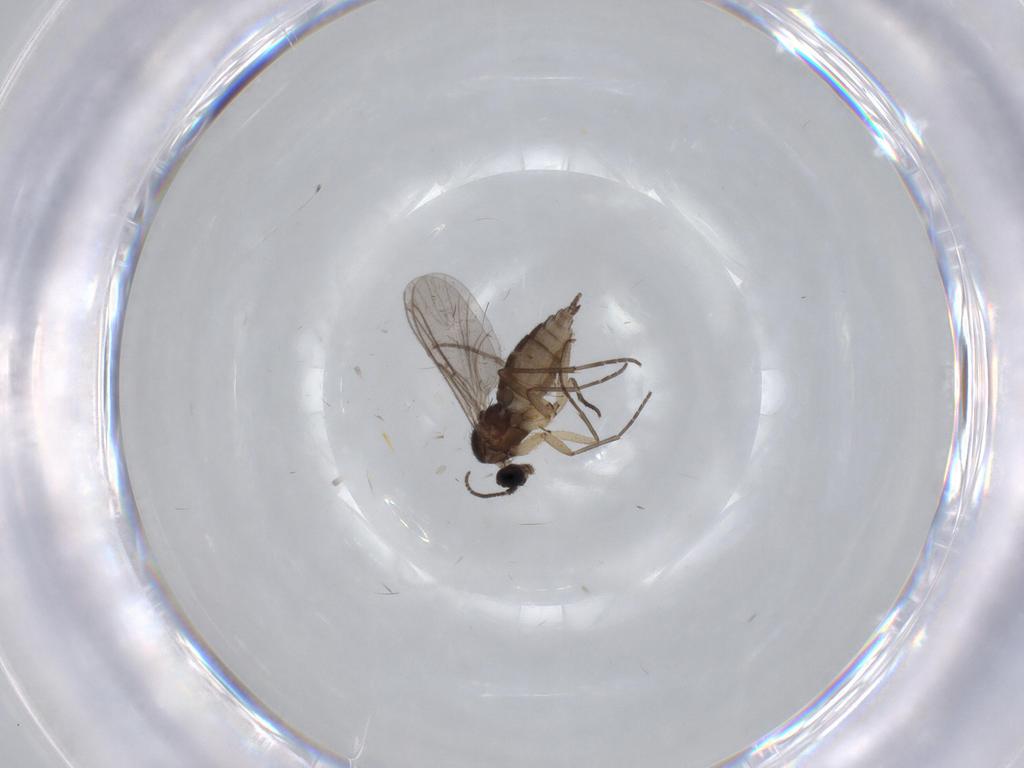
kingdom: Animalia
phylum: Arthropoda
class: Insecta
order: Diptera
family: Sciaridae
